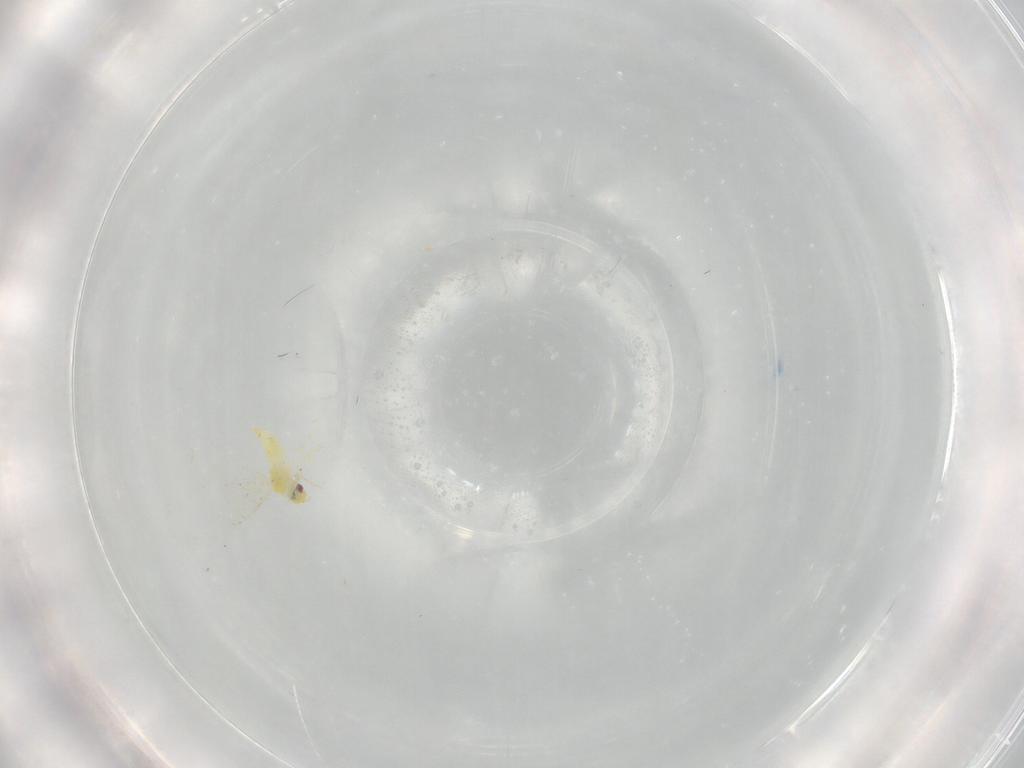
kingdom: Animalia
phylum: Arthropoda
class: Insecta
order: Hemiptera
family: Aleyrodidae
